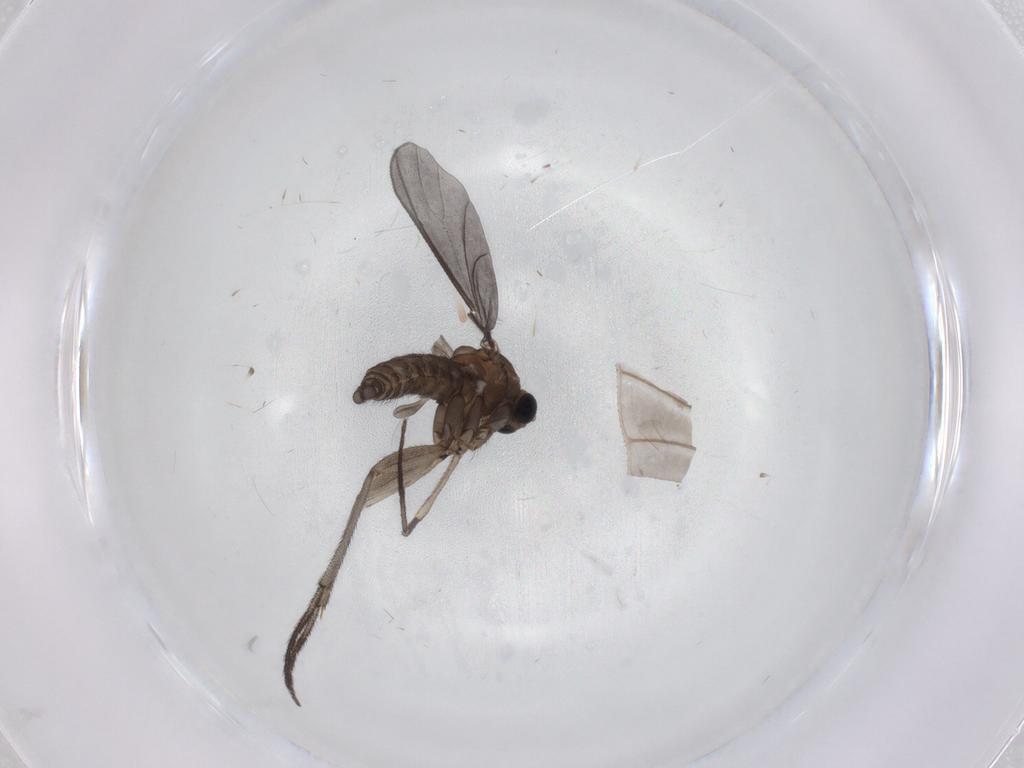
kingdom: Animalia
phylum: Arthropoda
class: Insecta
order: Diptera
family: Sciaridae
